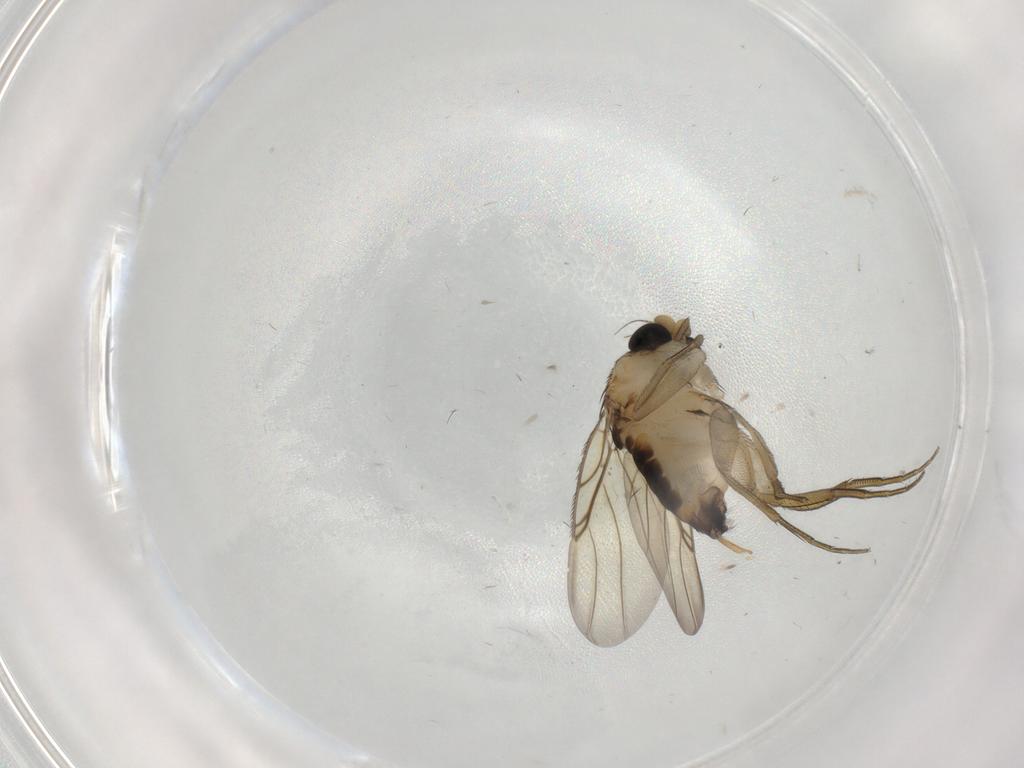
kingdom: Animalia
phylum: Arthropoda
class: Insecta
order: Diptera
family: Phoridae
